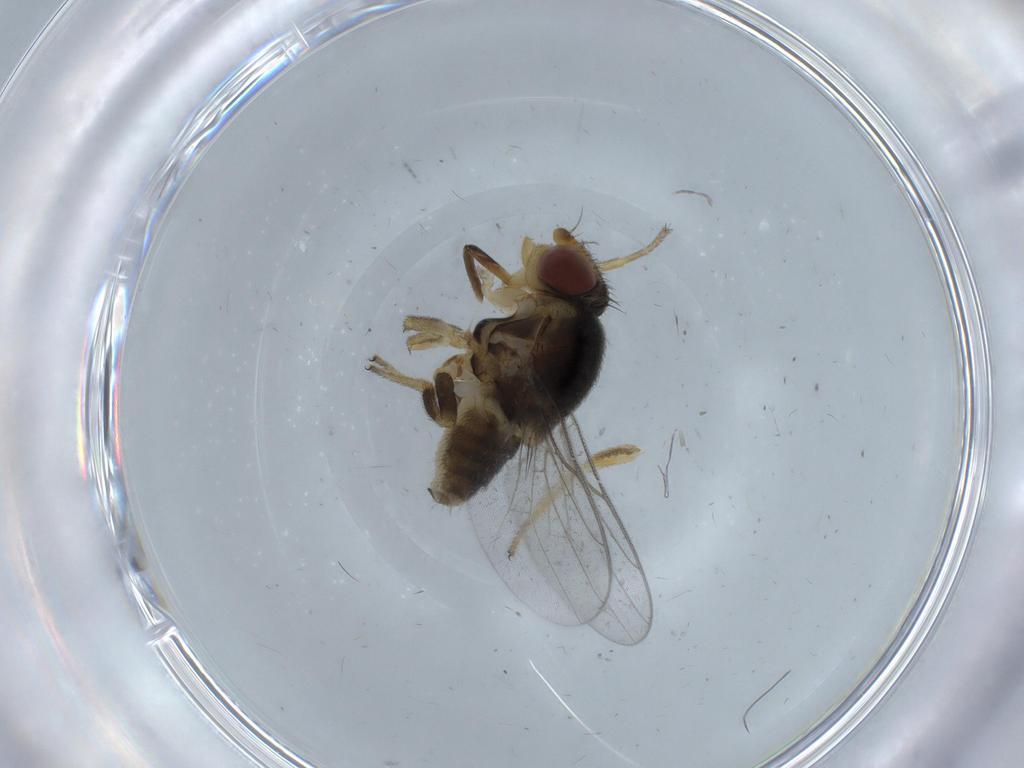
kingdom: Animalia
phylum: Arthropoda
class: Insecta
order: Diptera
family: Chloropidae
